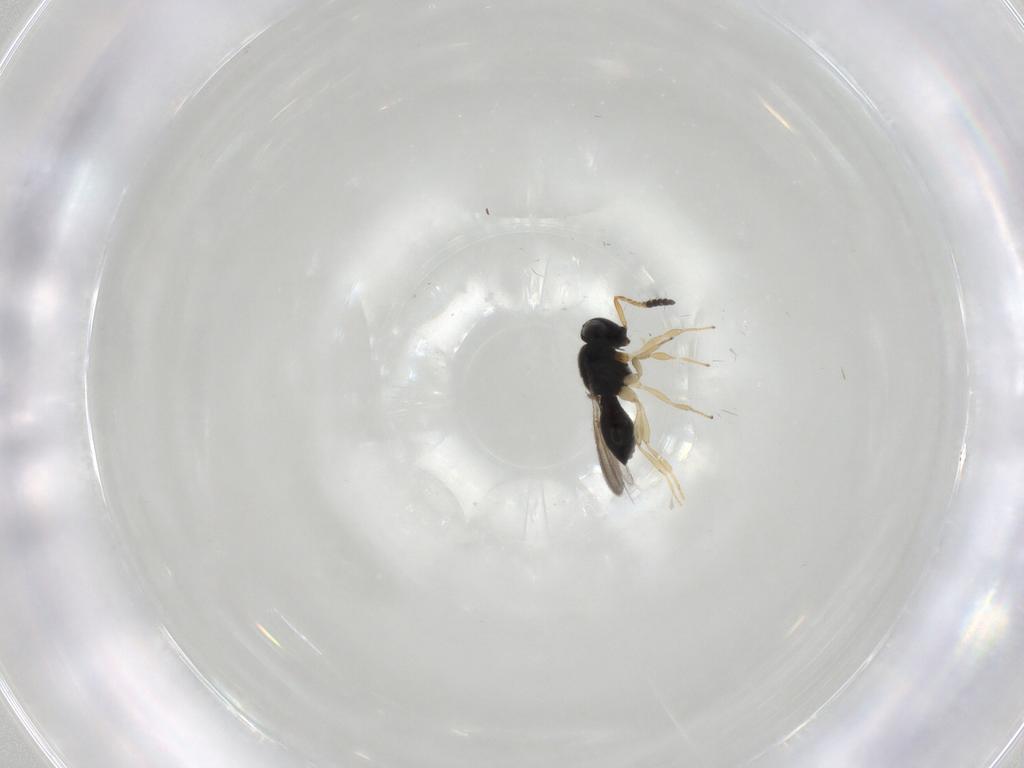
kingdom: Animalia
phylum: Arthropoda
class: Insecta
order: Hymenoptera
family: Scelionidae
